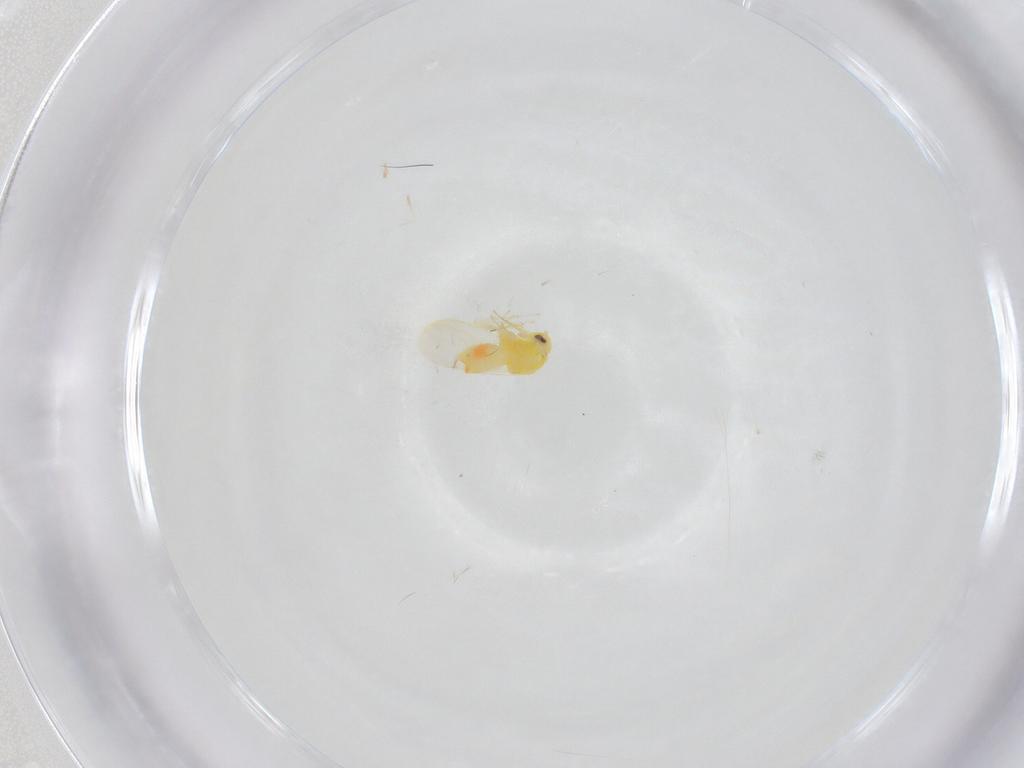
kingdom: Animalia
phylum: Arthropoda
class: Insecta
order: Hemiptera
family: Aleyrodidae
